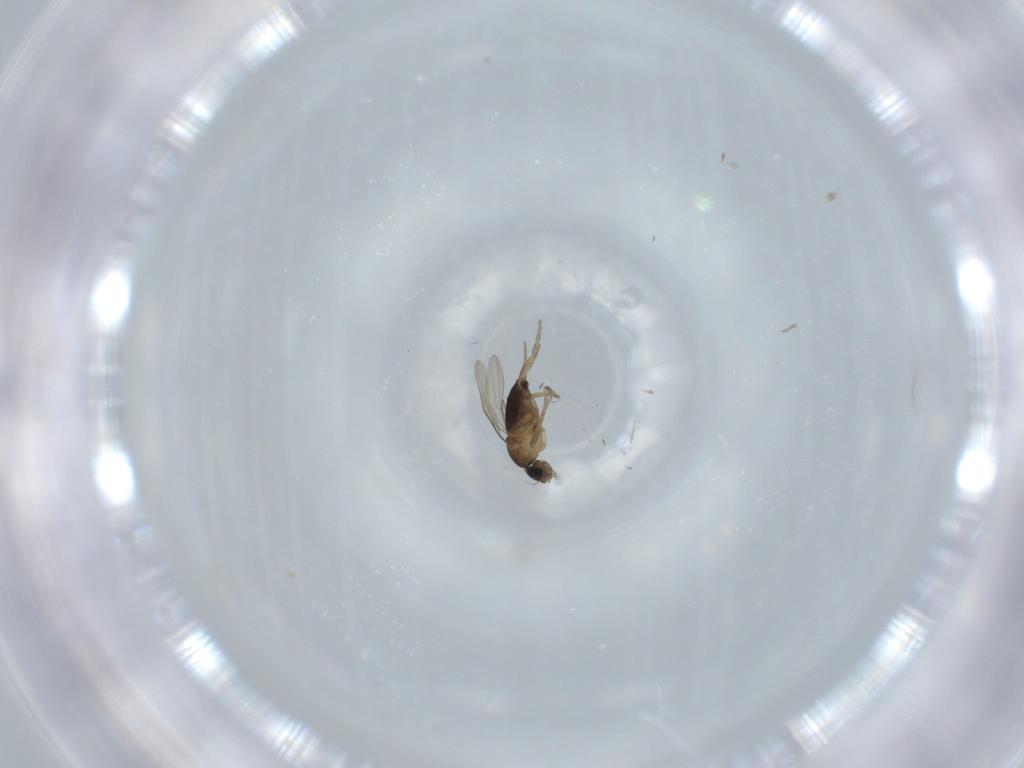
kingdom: Animalia
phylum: Arthropoda
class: Insecta
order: Diptera
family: Phoridae
